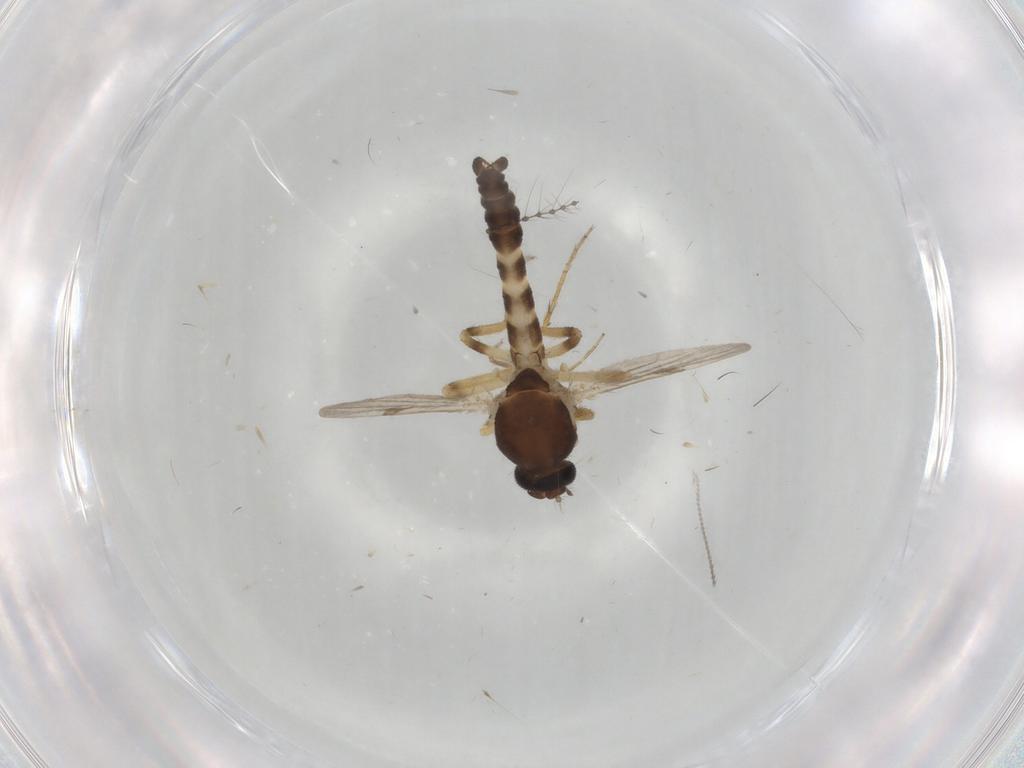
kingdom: Animalia
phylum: Arthropoda
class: Insecta
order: Diptera
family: Cecidomyiidae
